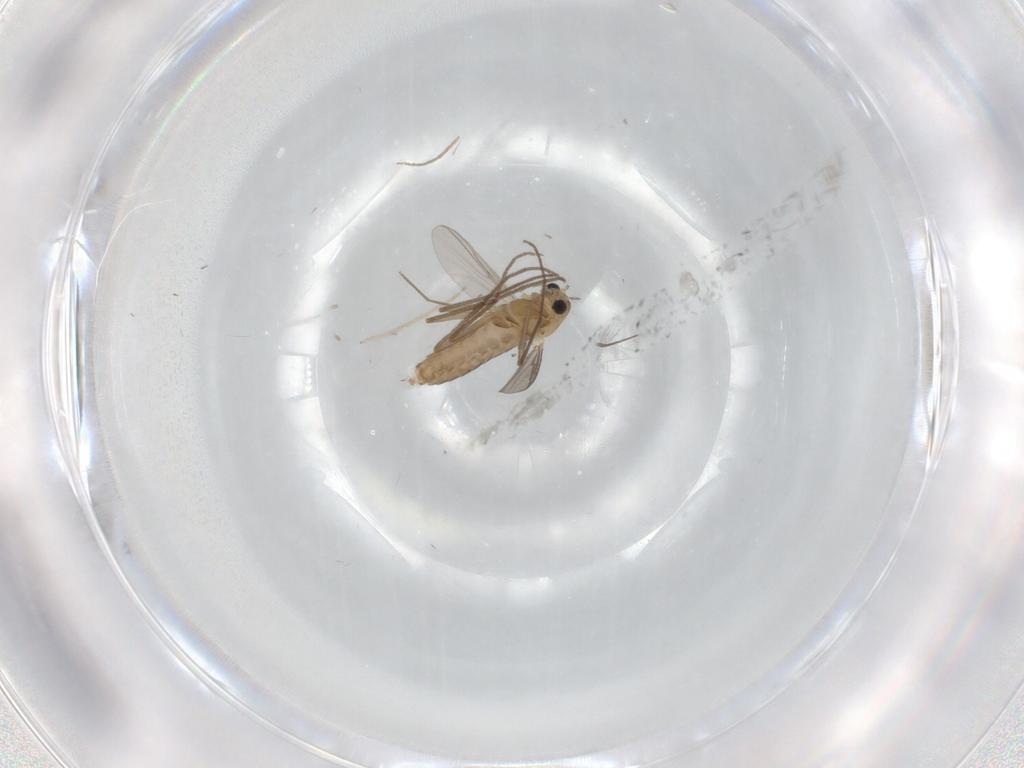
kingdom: Animalia
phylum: Arthropoda
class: Insecta
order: Diptera
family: Chironomidae
